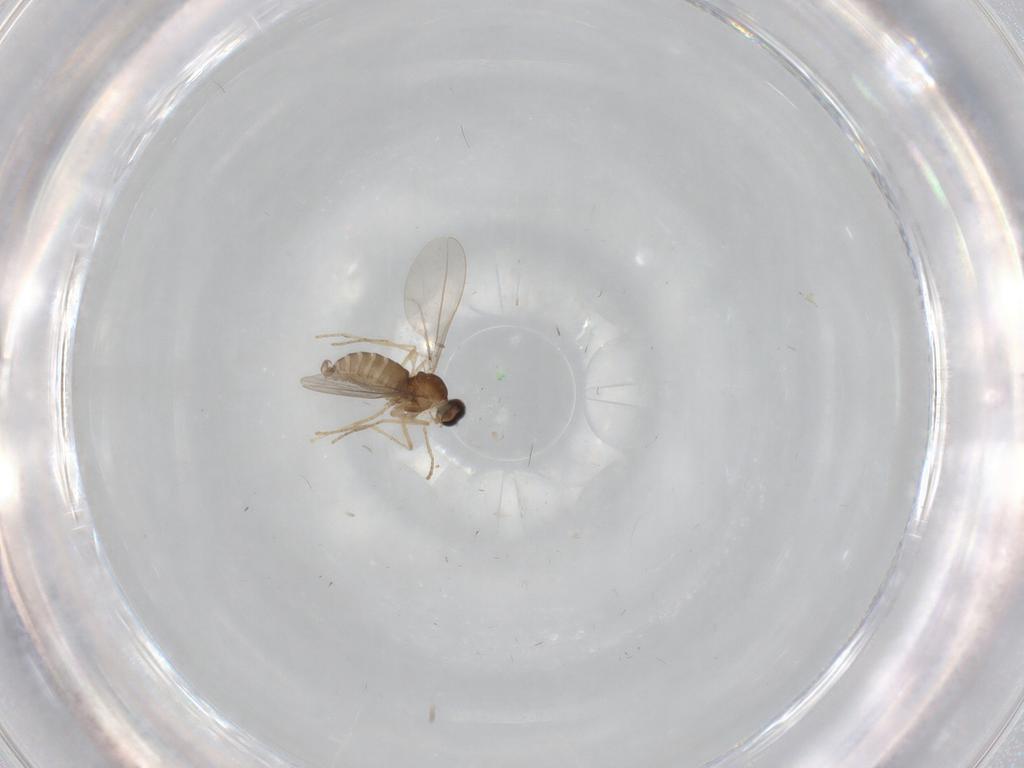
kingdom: Animalia
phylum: Arthropoda
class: Insecta
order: Diptera
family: Cecidomyiidae
